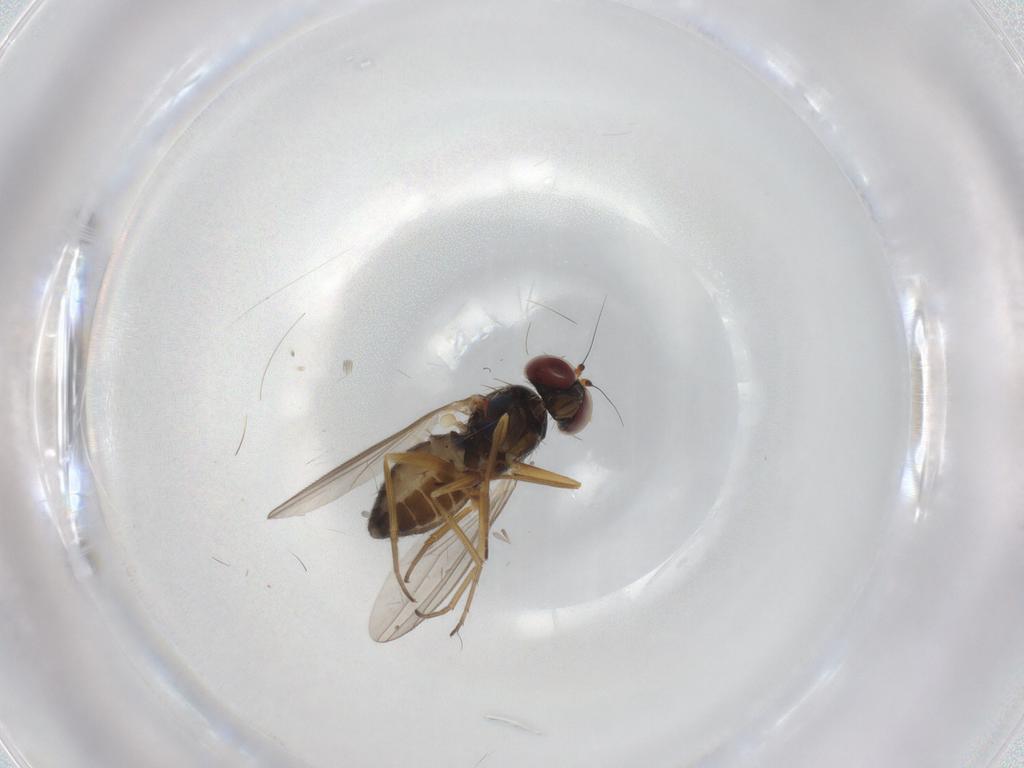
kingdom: Animalia
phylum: Arthropoda
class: Insecta
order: Diptera
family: Dolichopodidae
